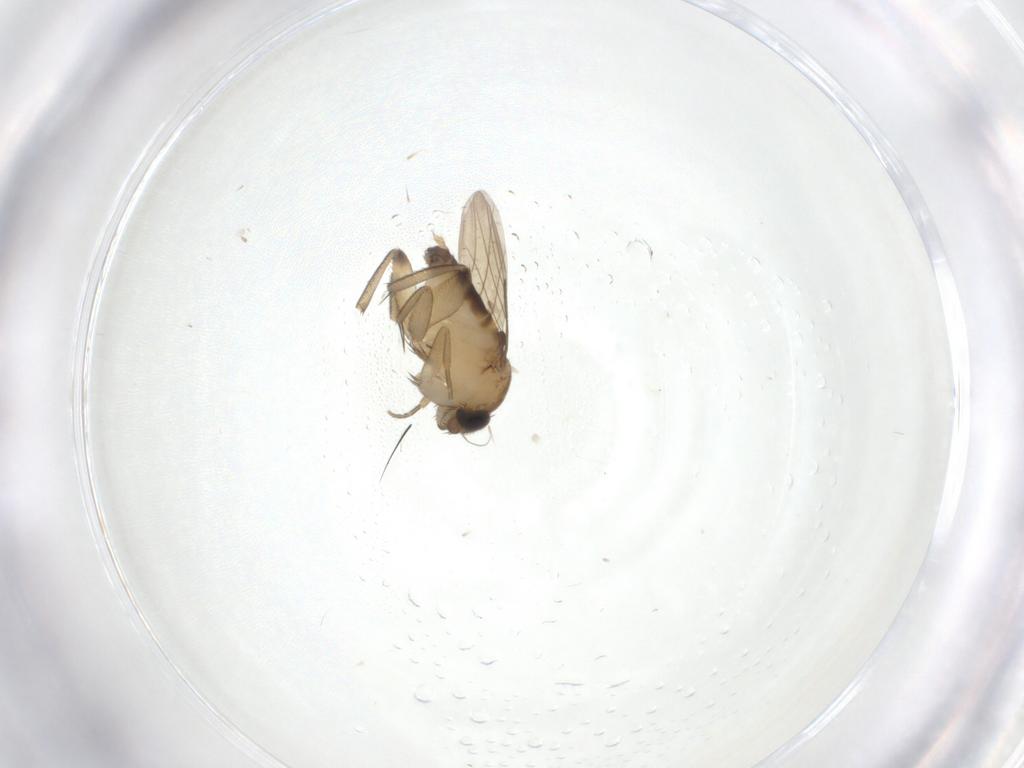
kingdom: Animalia
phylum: Arthropoda
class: Insecta
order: Diptera
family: Phoridae
